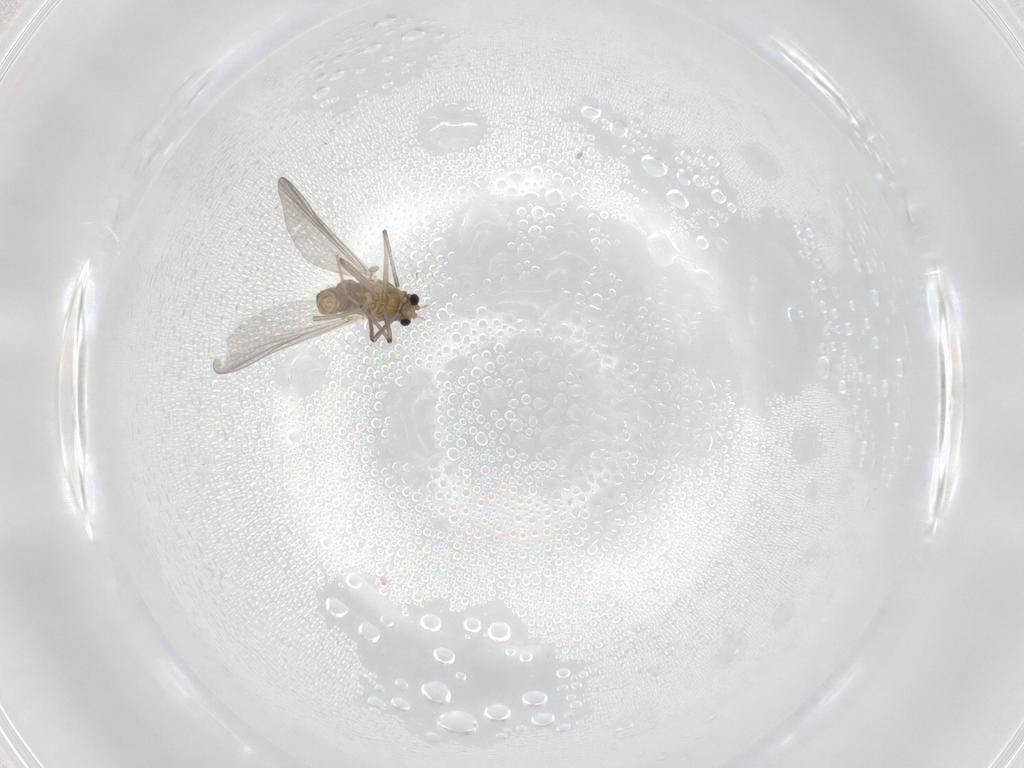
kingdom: Animalia
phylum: Arthropoda
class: Insecta
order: Diptera
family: Chironomidae
